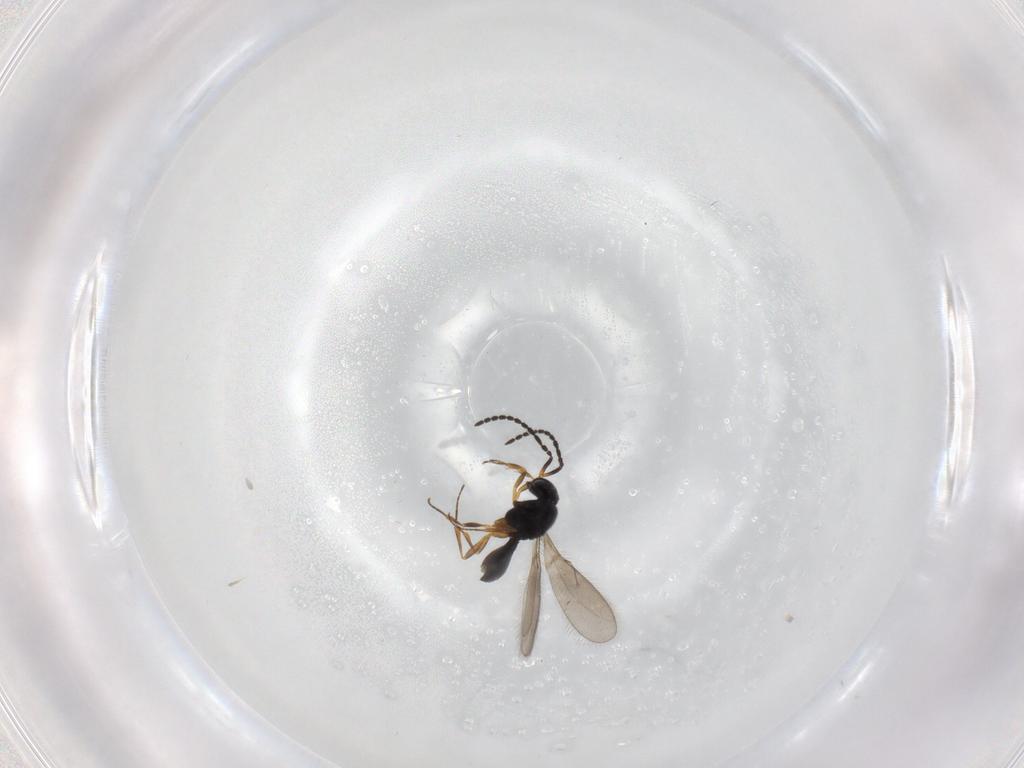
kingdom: Animalia
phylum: Arthropoda
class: Insecta
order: Hymenoptera
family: Scelionidae
